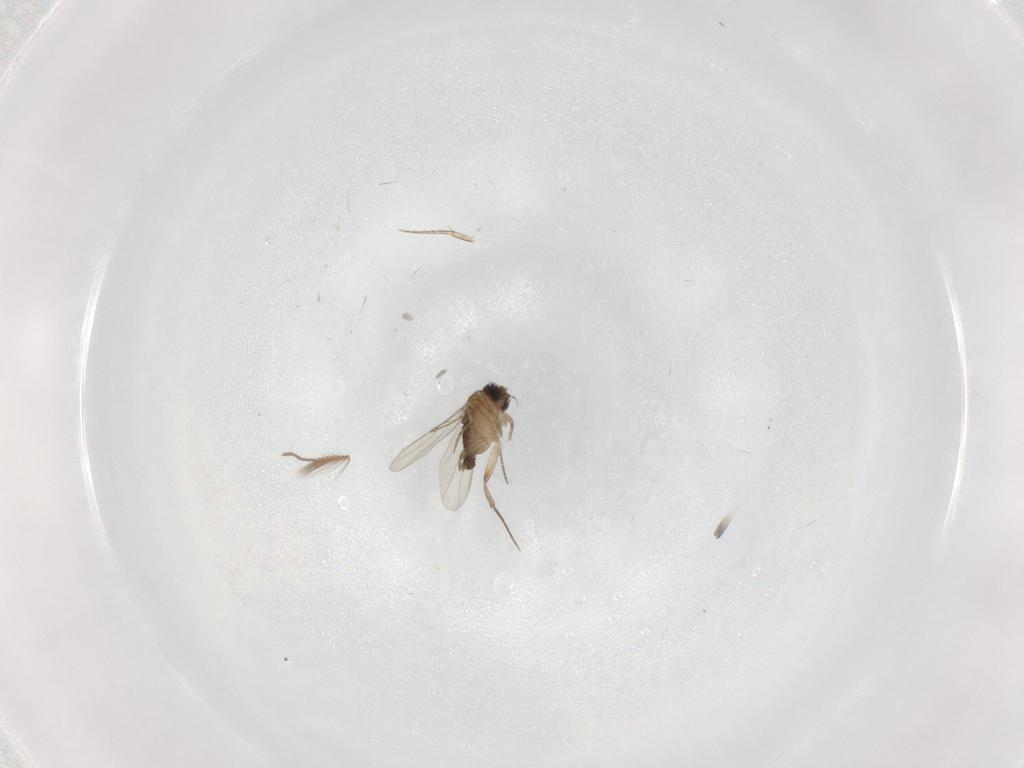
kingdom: Animalia
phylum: Arthropoda
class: Insecta
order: Diptera
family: Ceratopogonidae
